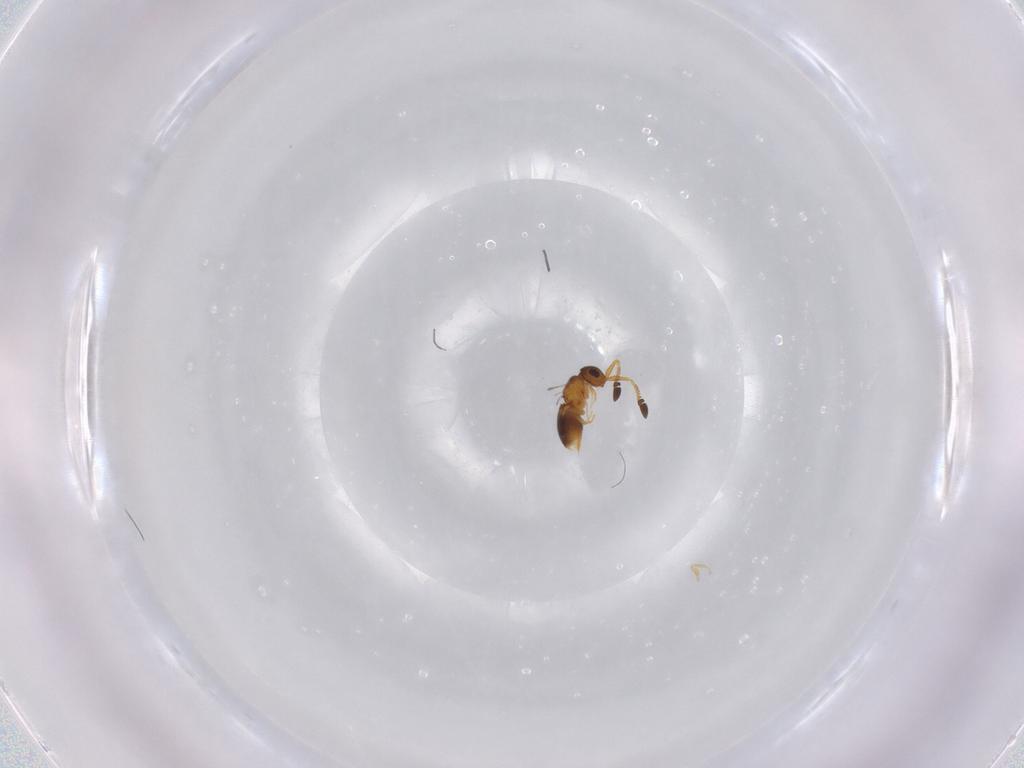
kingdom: Animalia
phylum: Arthropoda
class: Insecta
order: Hymenoptera
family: Ceraphronidae
